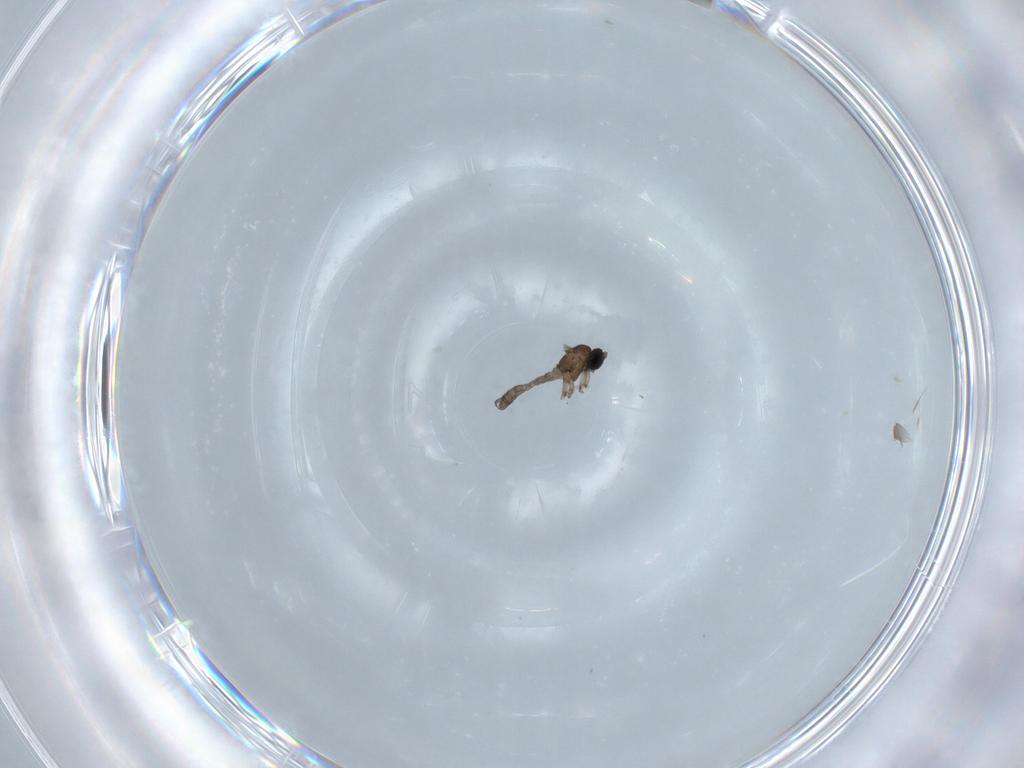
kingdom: Animalia
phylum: Arthropoda
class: Insecta
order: Diptera
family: Sciaridae
